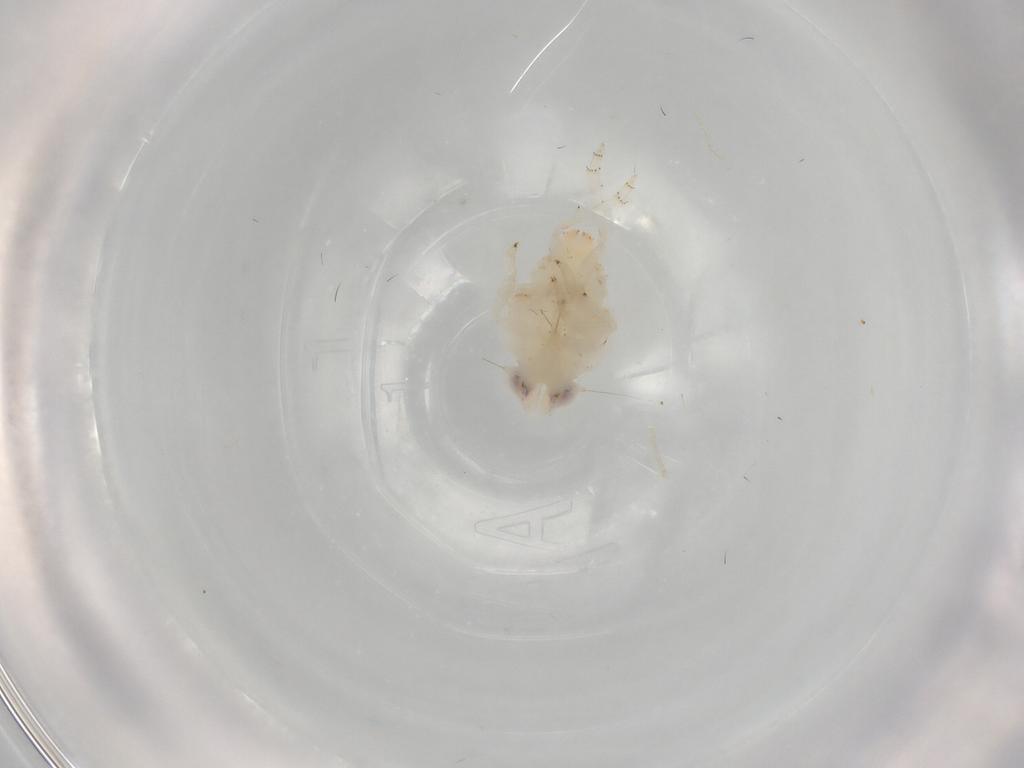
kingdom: Animalia
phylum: Arthropoda
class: Insecta
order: Hemiptera
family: Nogodinidae
